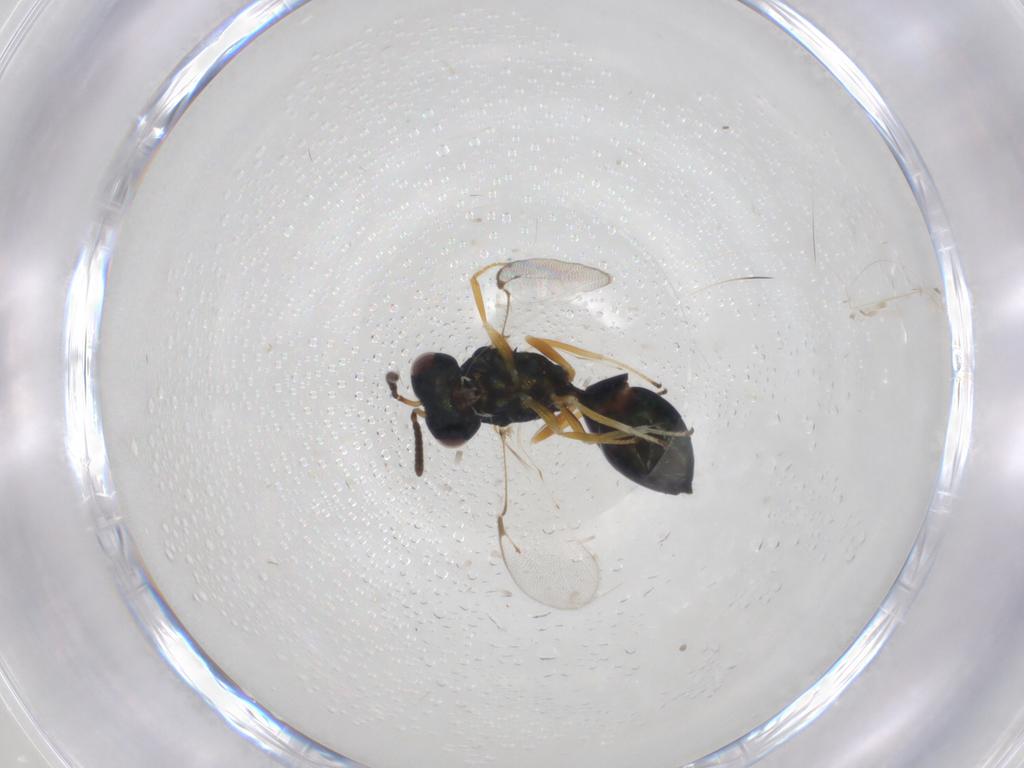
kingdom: Animalia
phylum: Arthropoda
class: Insecta
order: Hymenoptera
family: Pteromalidae
